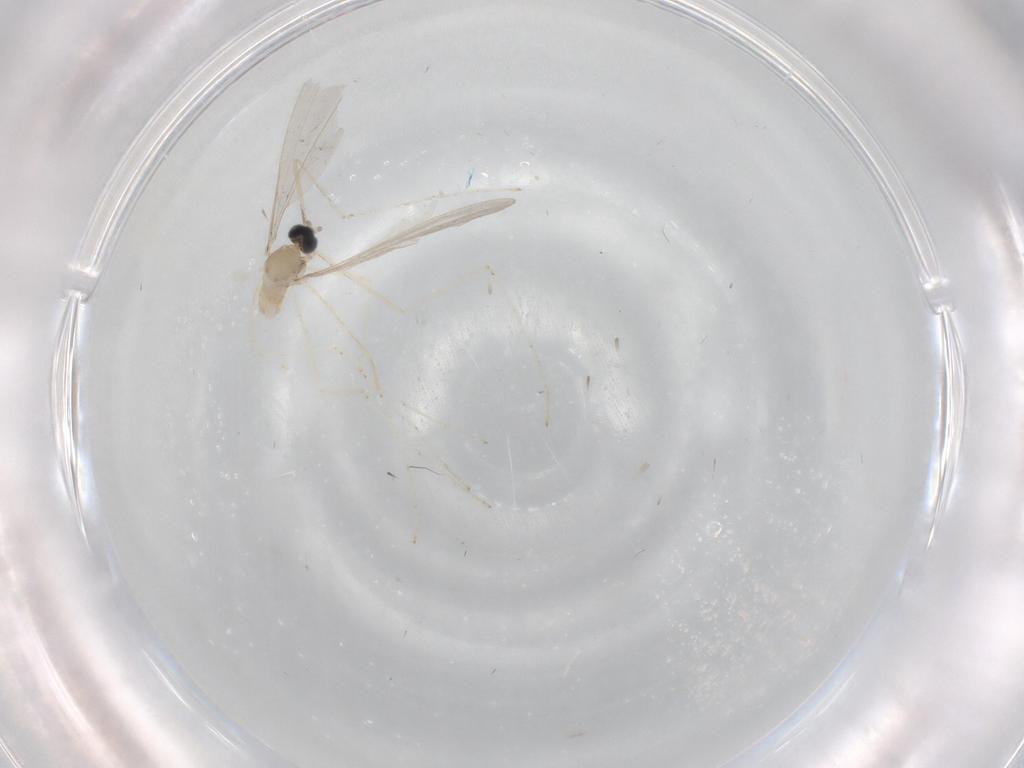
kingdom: Animalia
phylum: Arthropoda
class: Insecta
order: Diptera
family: Cecidomyiidae
